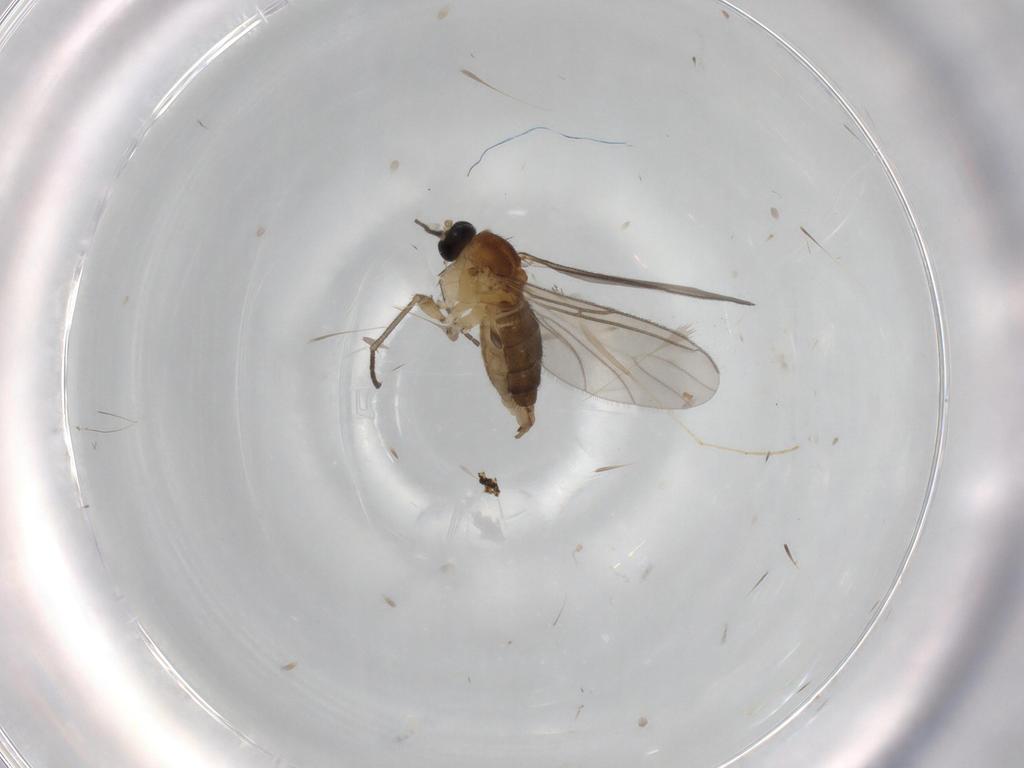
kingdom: Animalia
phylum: Arthropoda
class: Insecta
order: Diptera
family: Sciaridae
